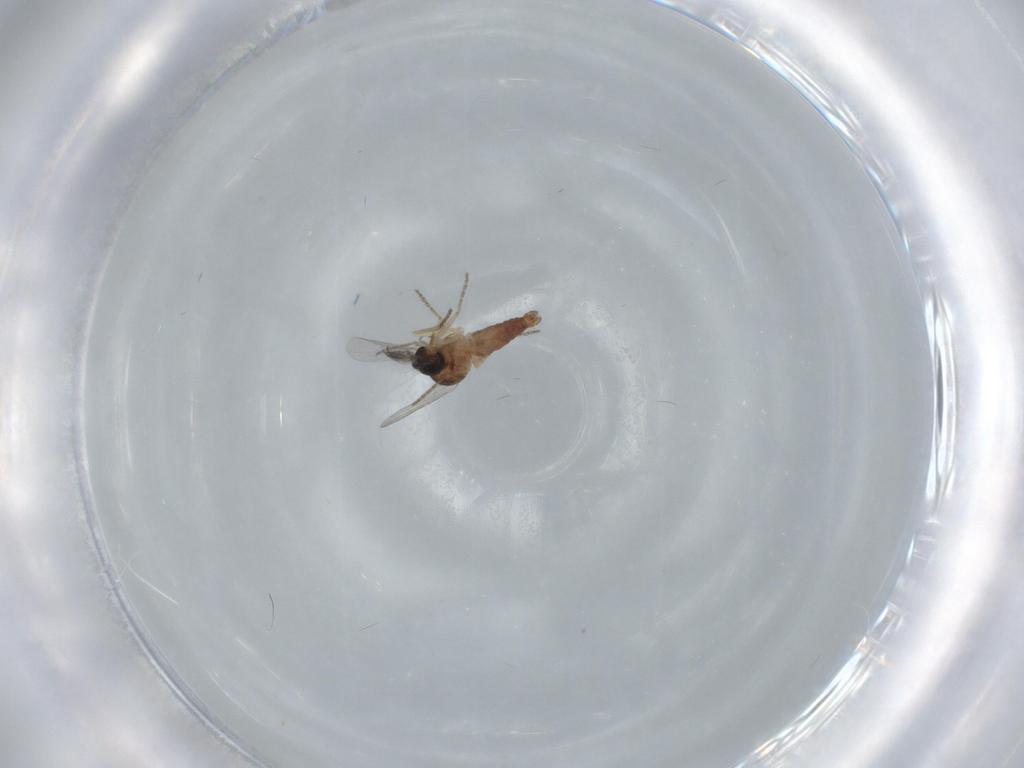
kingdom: Animalia
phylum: Arthropoda
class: Insecta
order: Diptera
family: Ceratopogonidae
